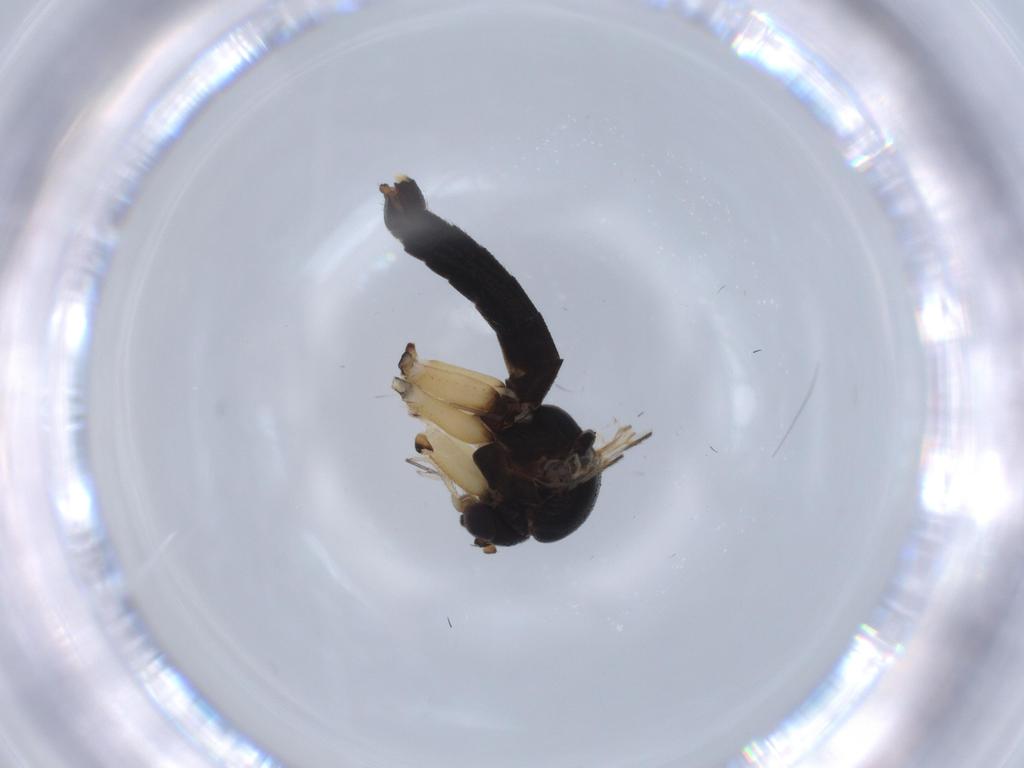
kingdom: Animalia
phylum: Arthropoda
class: Insecta
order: Diptera
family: Mycetophilidae
